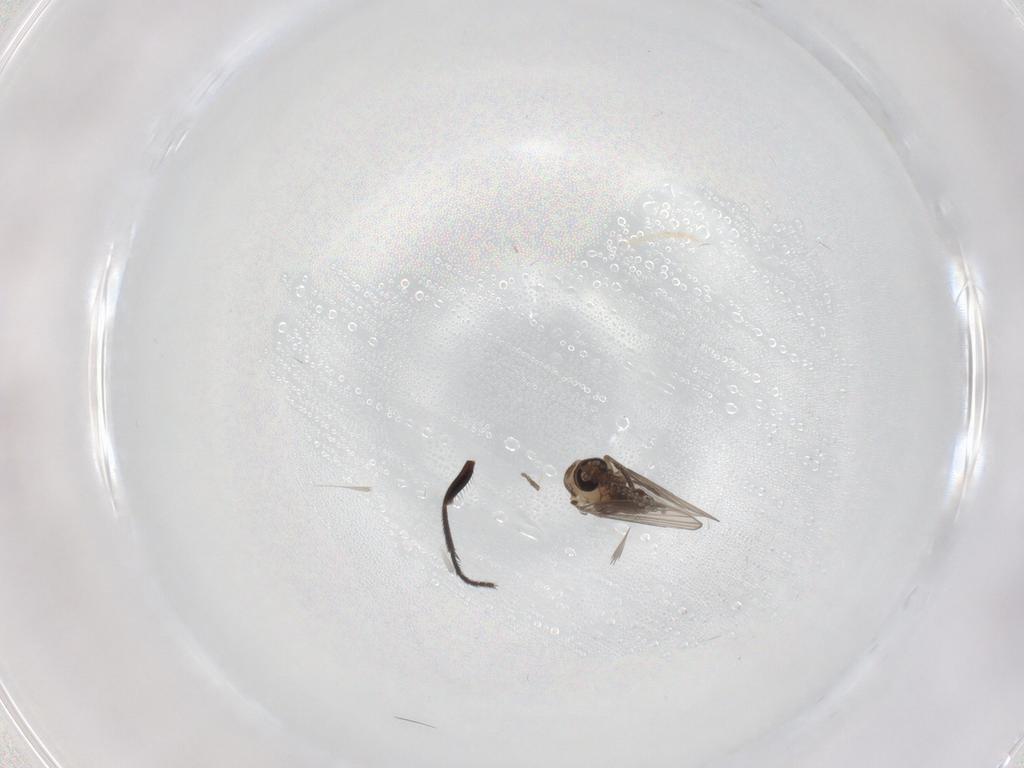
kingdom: Animalia
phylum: Arthropoda
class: Insecta
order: Diptera
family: Psychodidae
